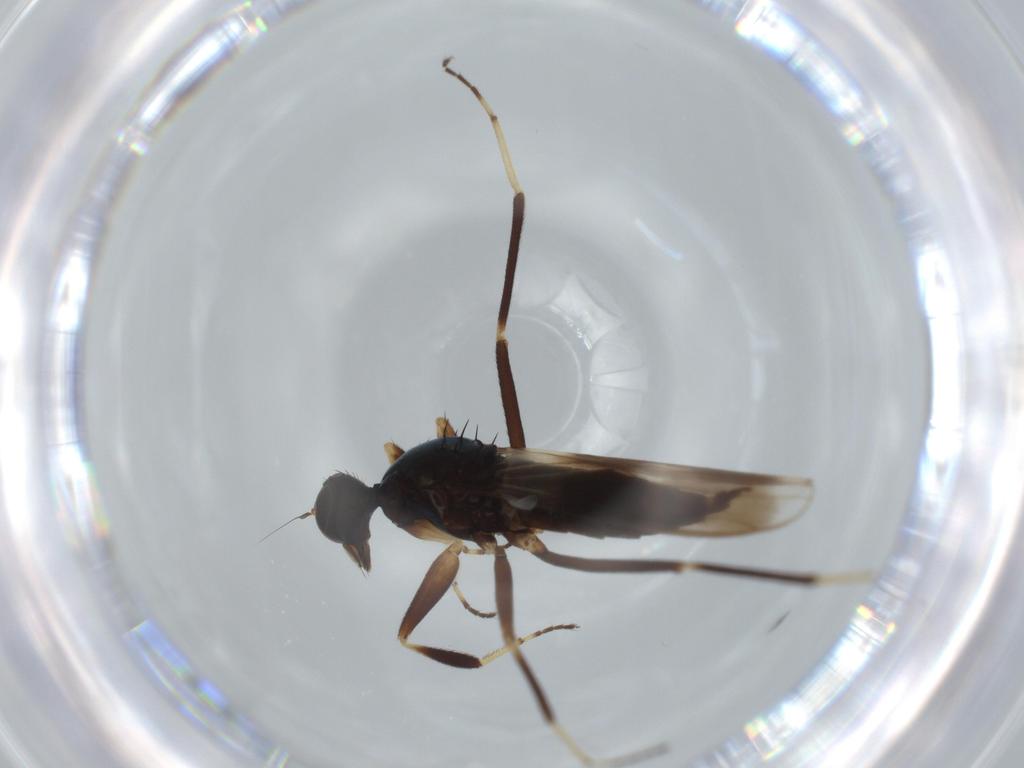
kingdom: Animalia
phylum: Arthropoda
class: Insecta
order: Diptera
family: Hybotidae
